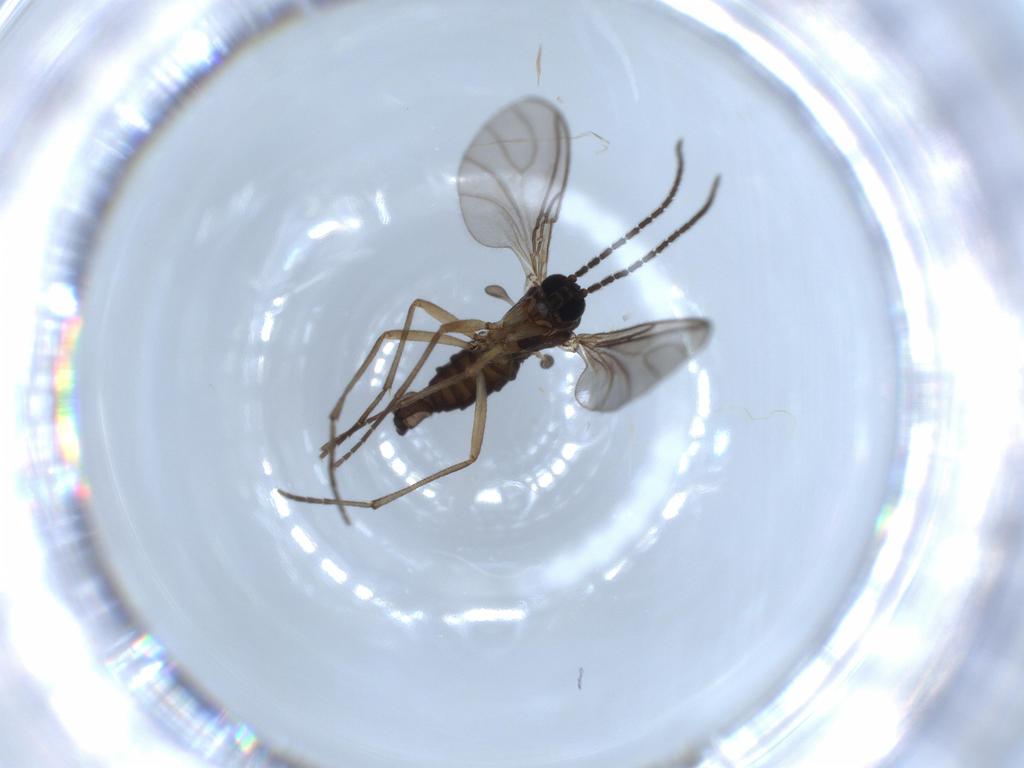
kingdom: Animalia
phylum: Arthropoda
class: Insecta
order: Diptera
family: Sciaridae
